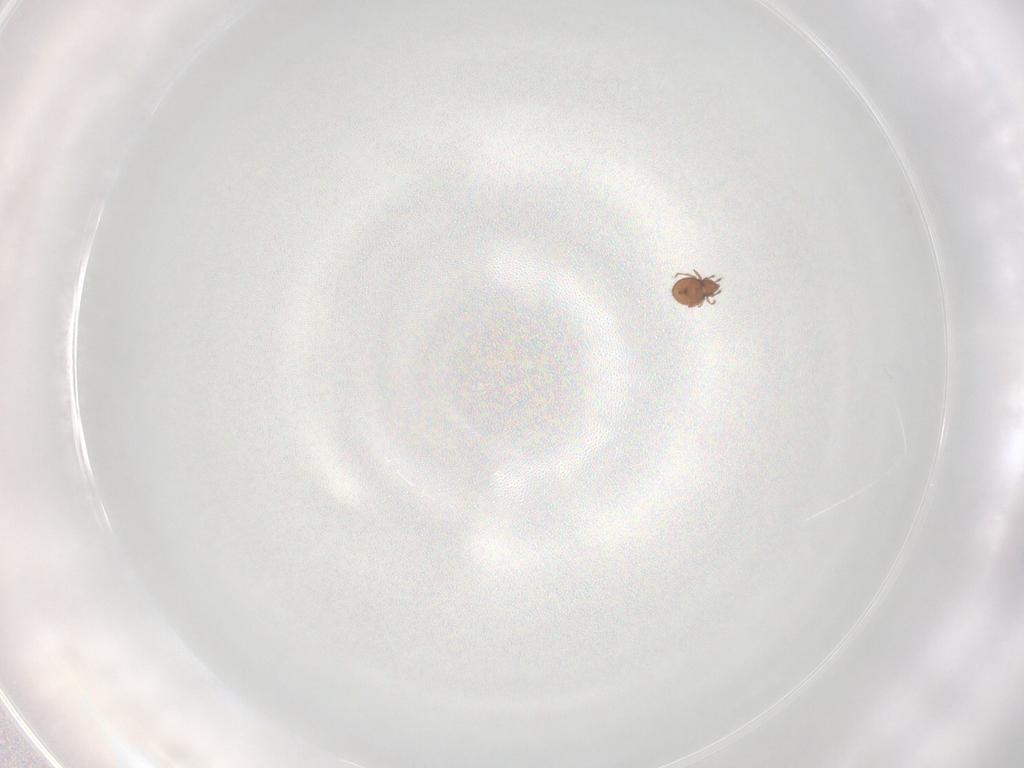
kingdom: Animalia
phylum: Arthropoda
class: Arachnida
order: Sarcoptiformes
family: Oribatulidae
